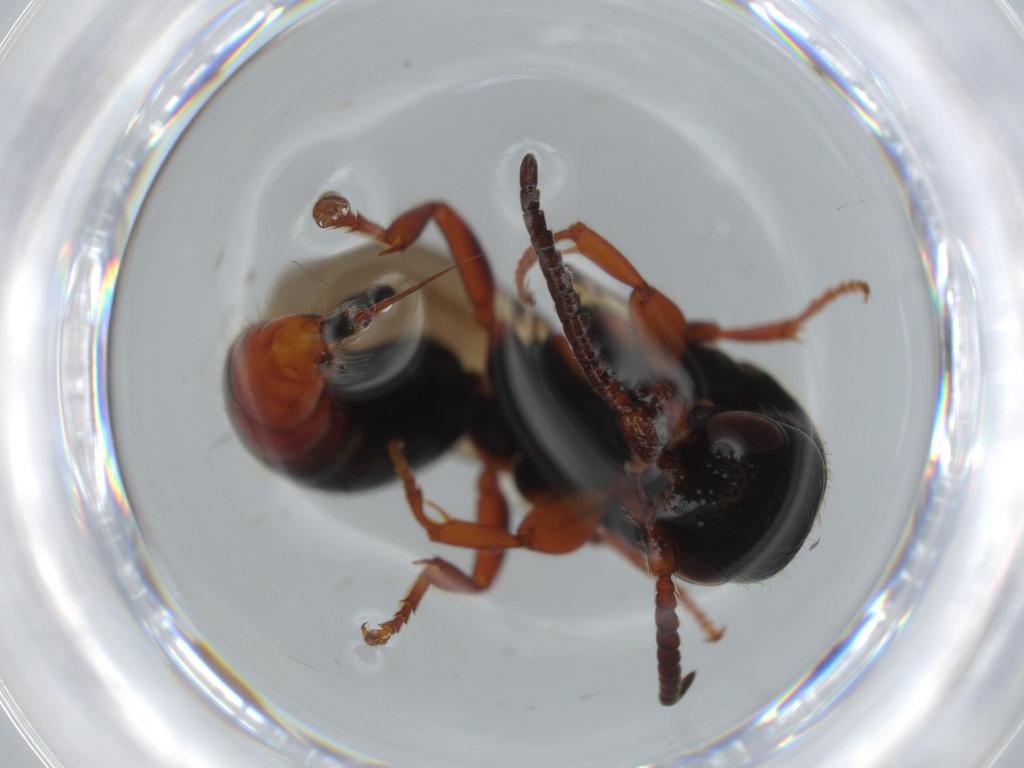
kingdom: Animalia
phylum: Arthropoda
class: Insecta
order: Hymenoptera
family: Bethylidae
